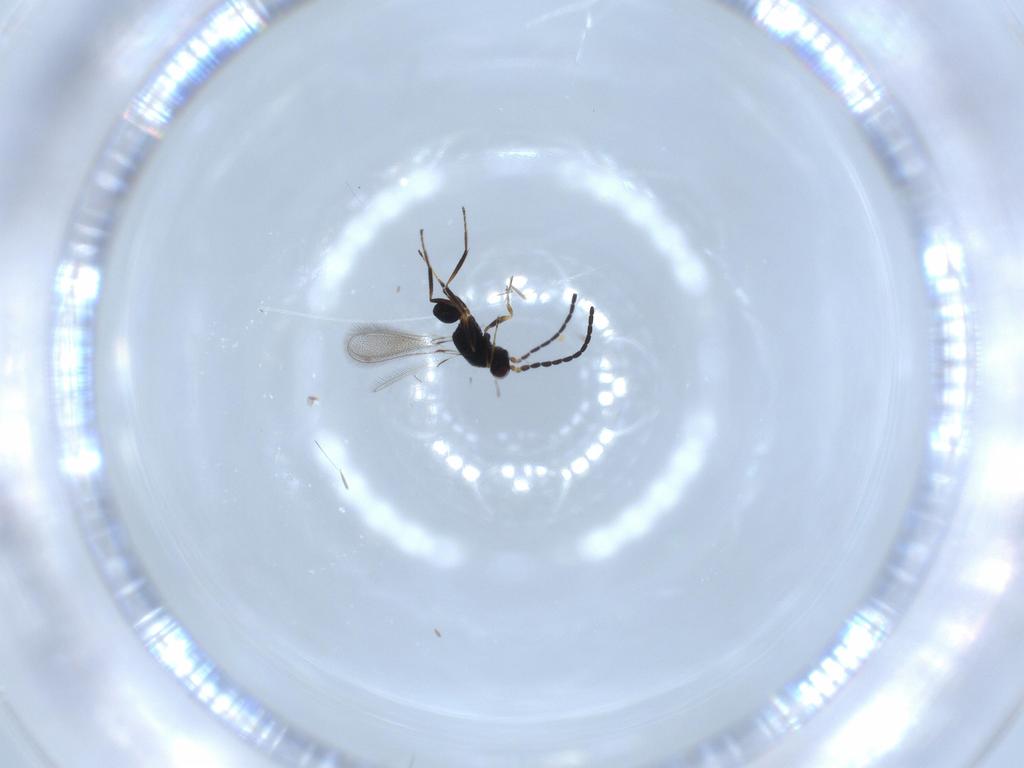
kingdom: Animalia
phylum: Arthropoda
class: Insecta
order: Hymenoptera
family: Mymaridae
